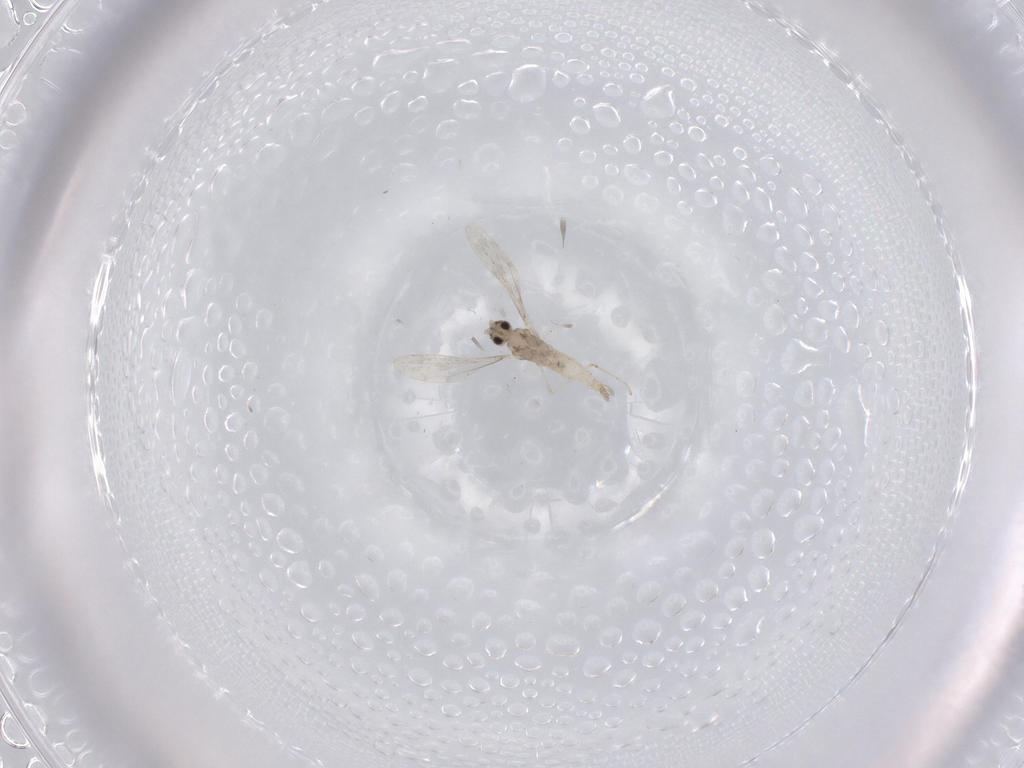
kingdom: Animalia
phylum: Arthropoda
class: Insecta
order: Diptera
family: Cecidomyiidae
